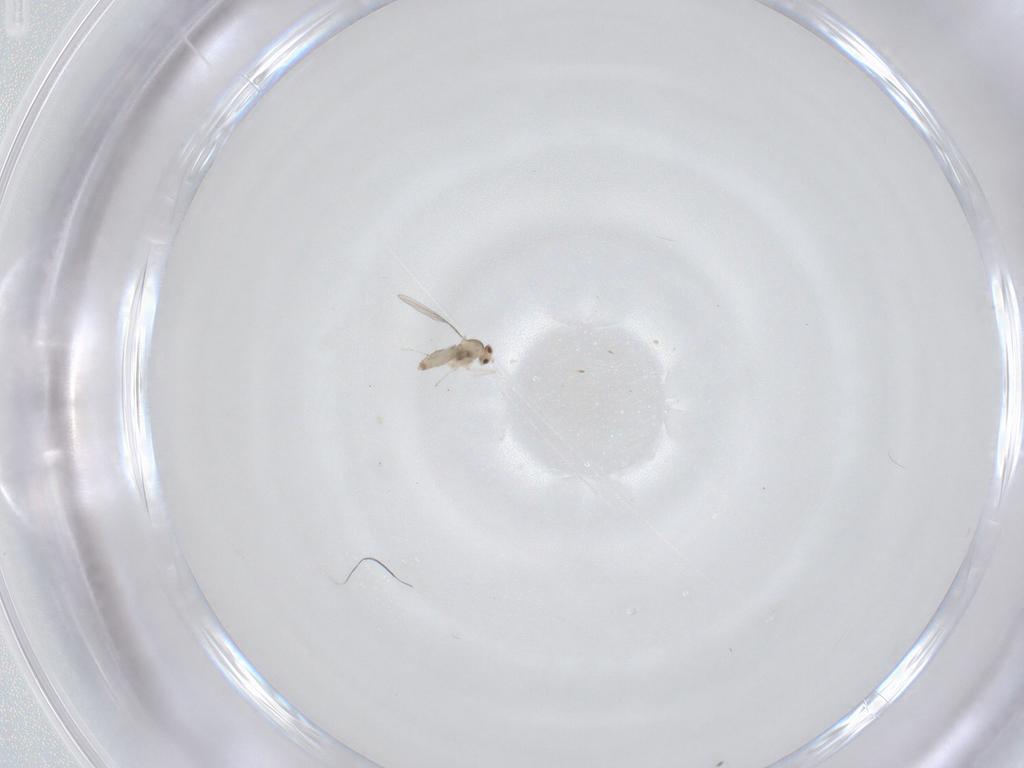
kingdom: Animalia
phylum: Arthropoda
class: Insecta
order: Diptera
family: Cecidomyiidae
